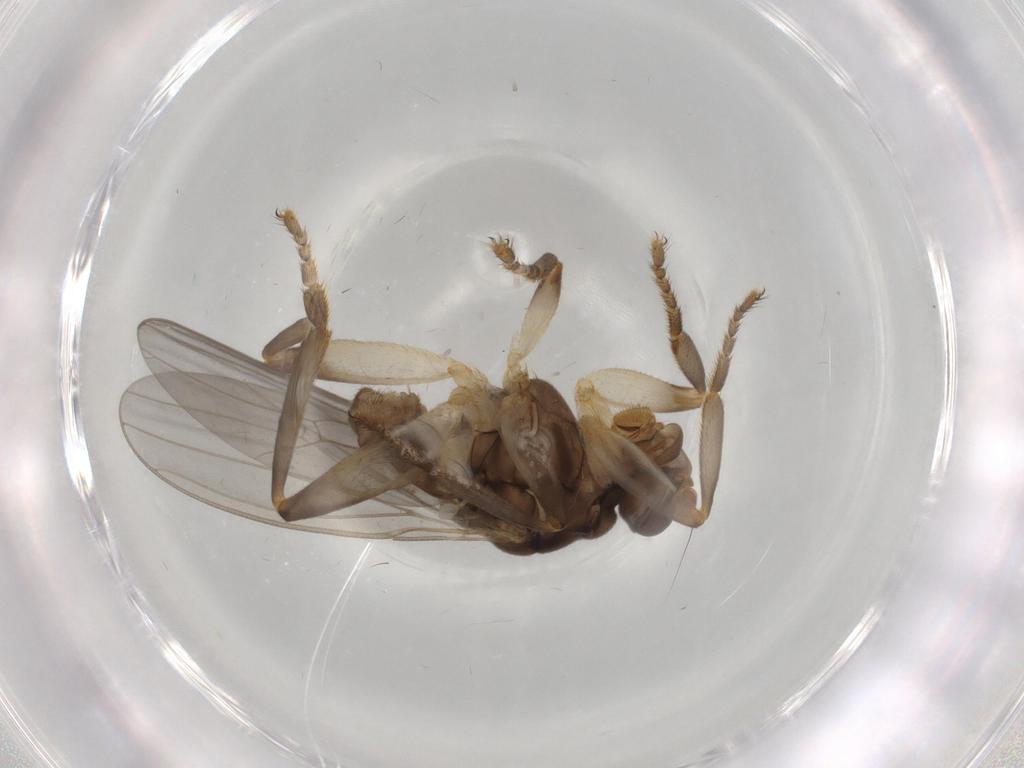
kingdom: Animalia
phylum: Arthropoda
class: Insecta
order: Diptera
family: Sphaeroceridae
